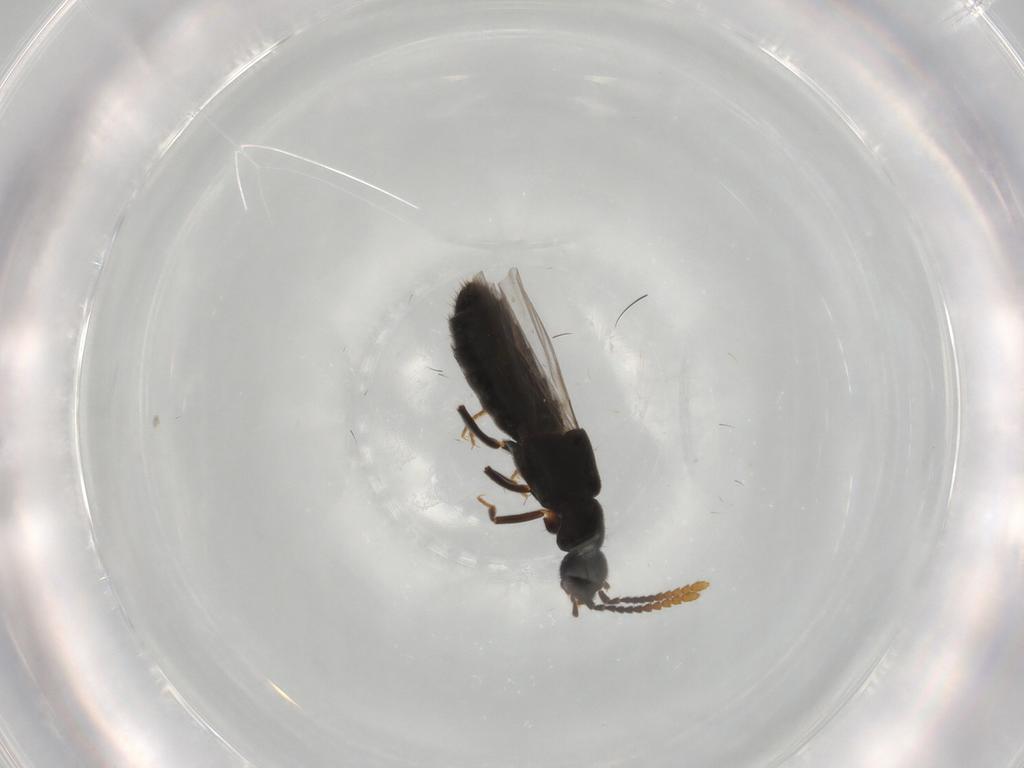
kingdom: Animalia
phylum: Arthropoda
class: Insecta
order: Coleoptera
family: Staphylinidae
